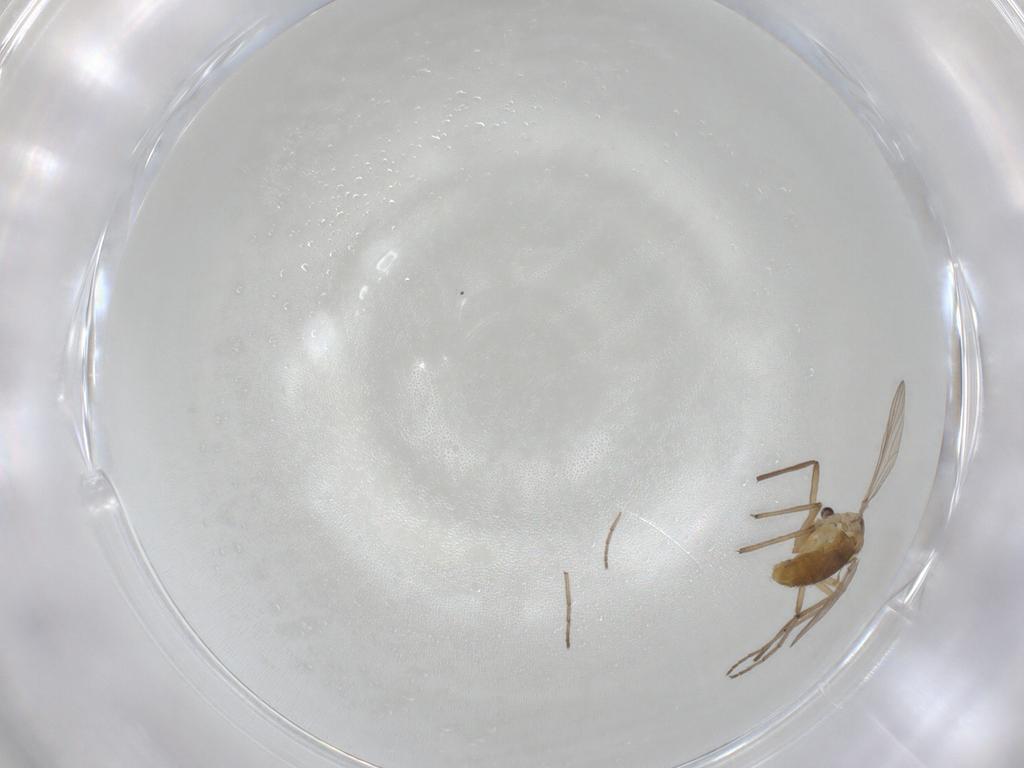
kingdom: Animalia
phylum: Arthropoda
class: Insecta
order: Diptera
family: Chironomidae
